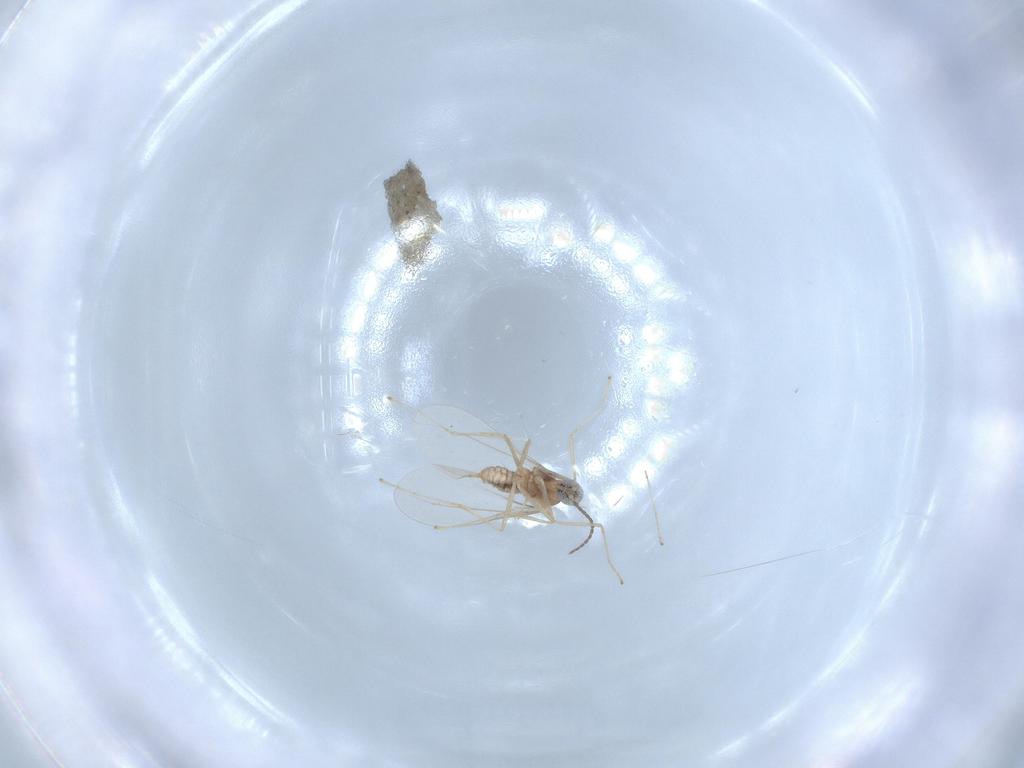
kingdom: Animalia
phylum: Arthropoda
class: Insecta
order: Diptera
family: Cecidomyiidae
